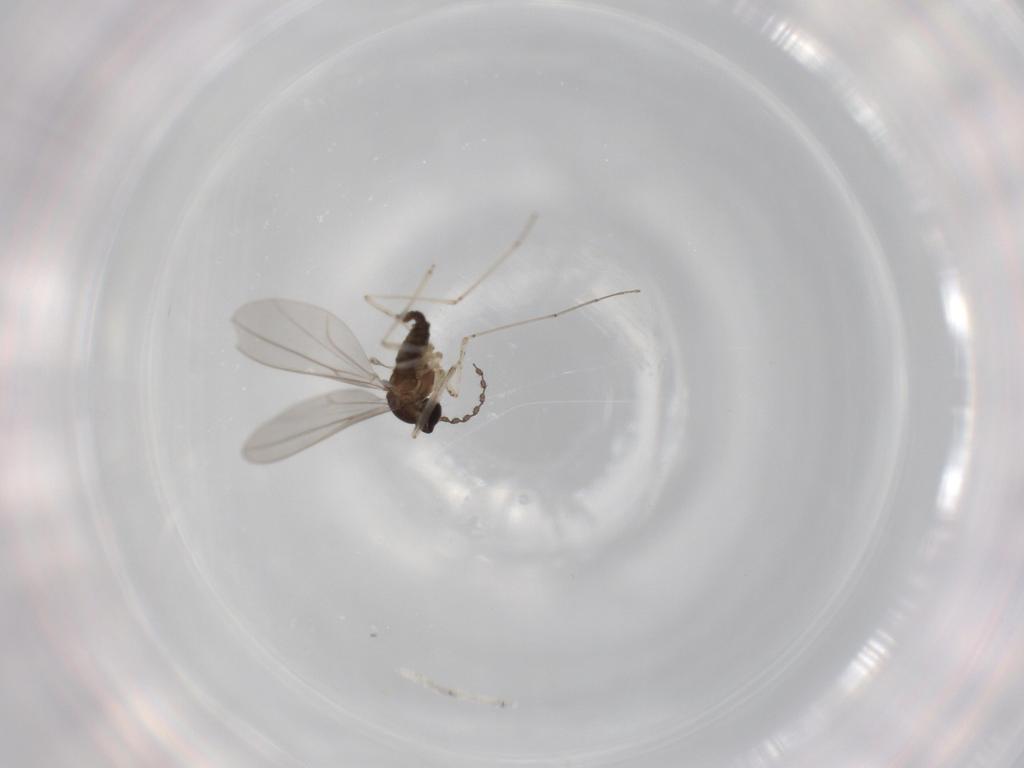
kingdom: Animalia
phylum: Arthropoda
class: Insecta
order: Diptera
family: Cecidomyiidae
